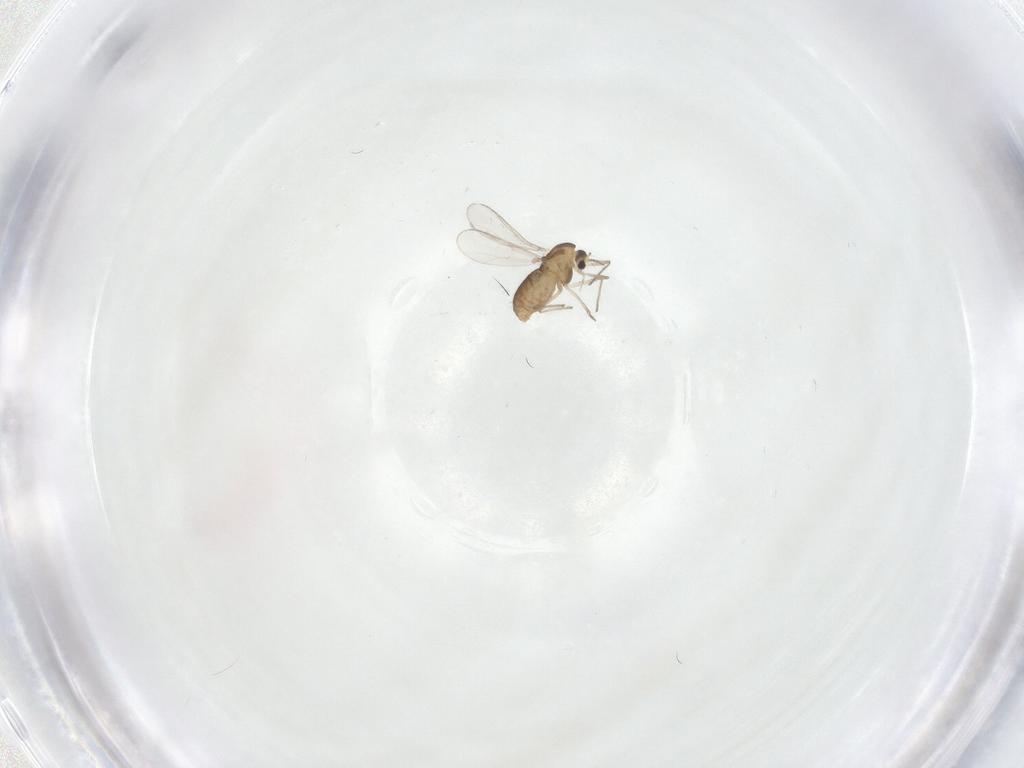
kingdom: Animalia
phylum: Arthropoda
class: Insecta
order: Diptera
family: Chironomidae
